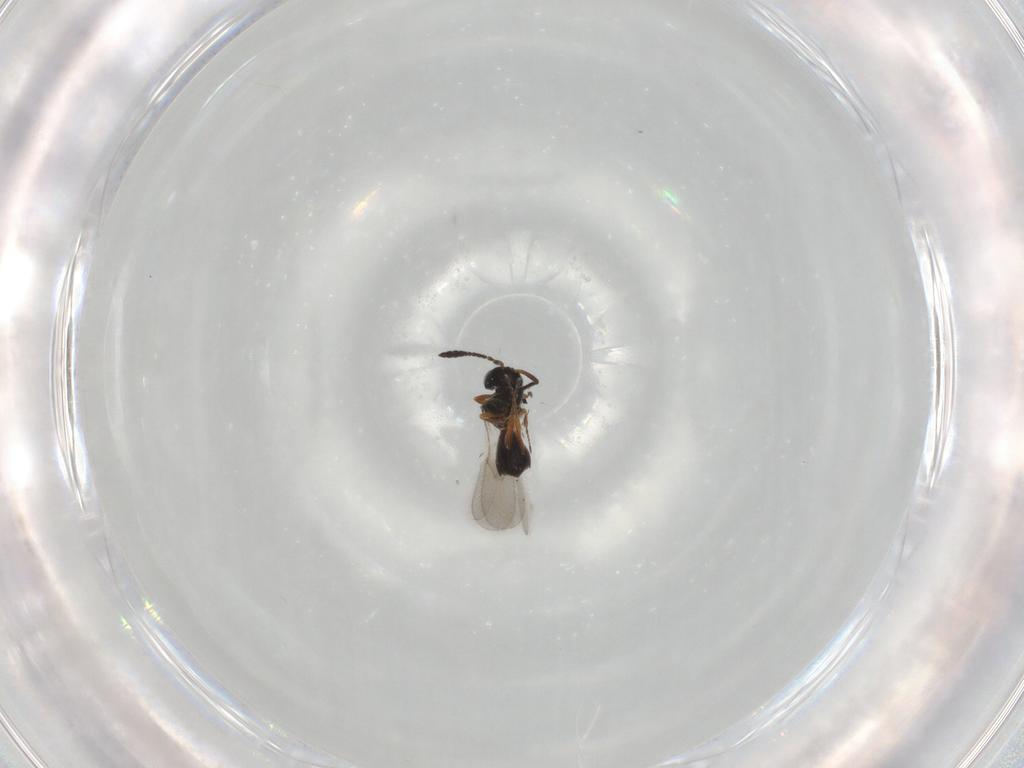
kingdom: Animalia
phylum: Arthropoda
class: Insecta
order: Hymenoptera
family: Scelionidae
